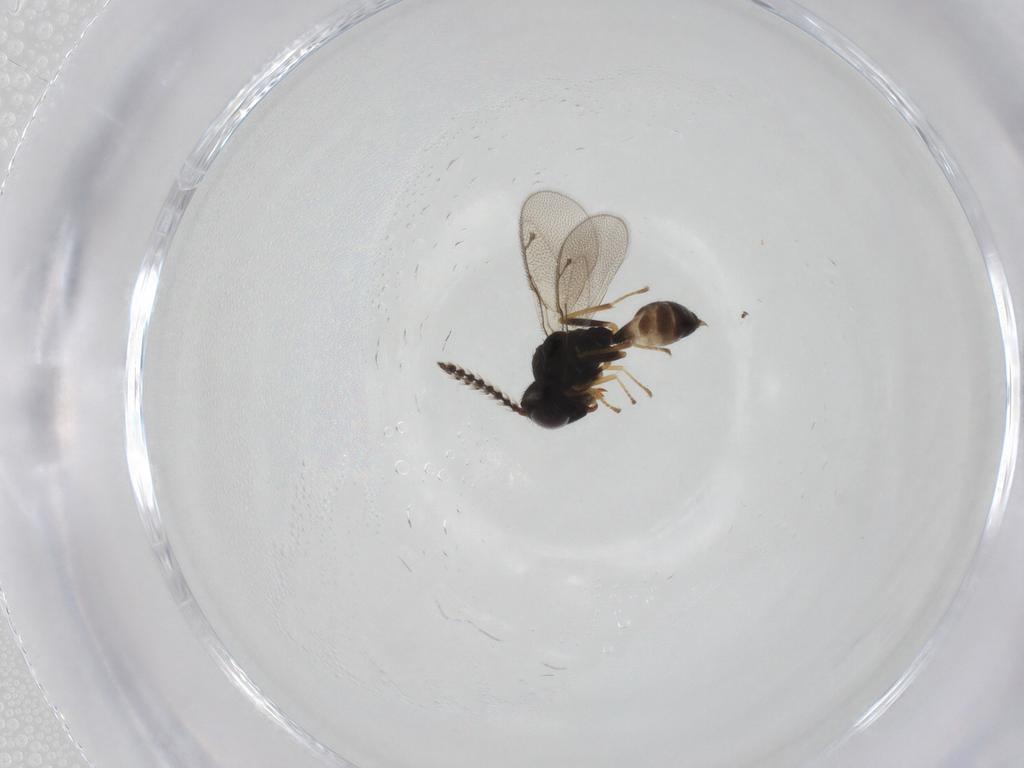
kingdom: Animalia
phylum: Arthropoda
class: Insecta
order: Hymenoptera
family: Pteromalidae
